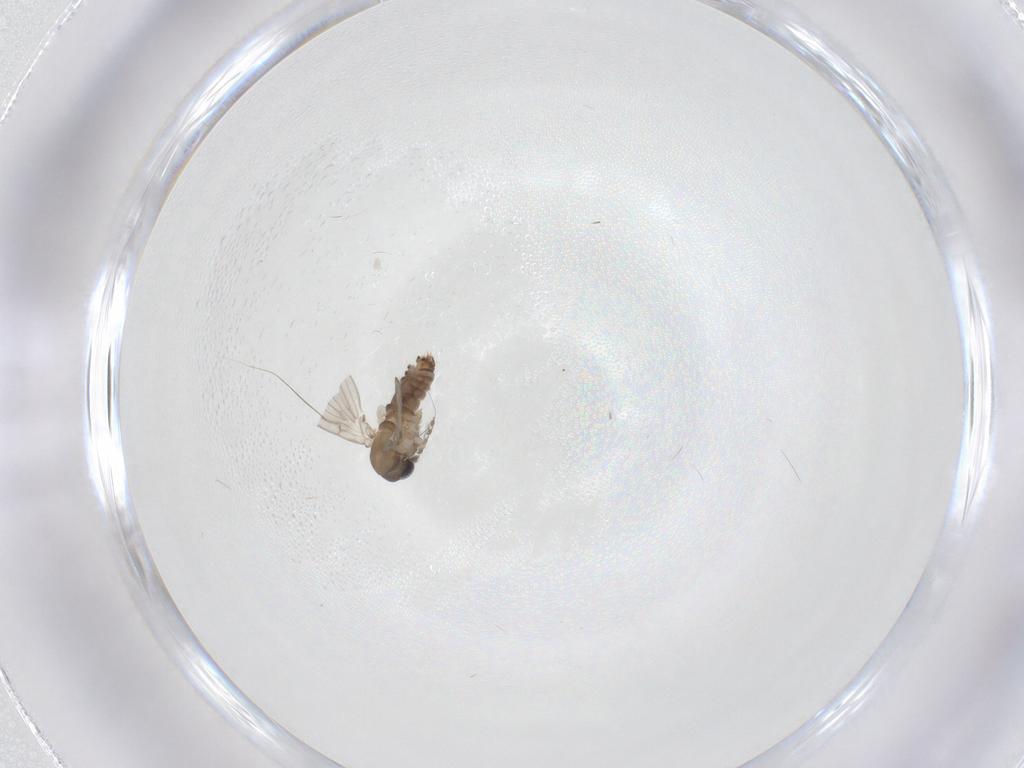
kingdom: Animalia
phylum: Arthropoda
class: Insecta
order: Diptera
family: Psychodidae
